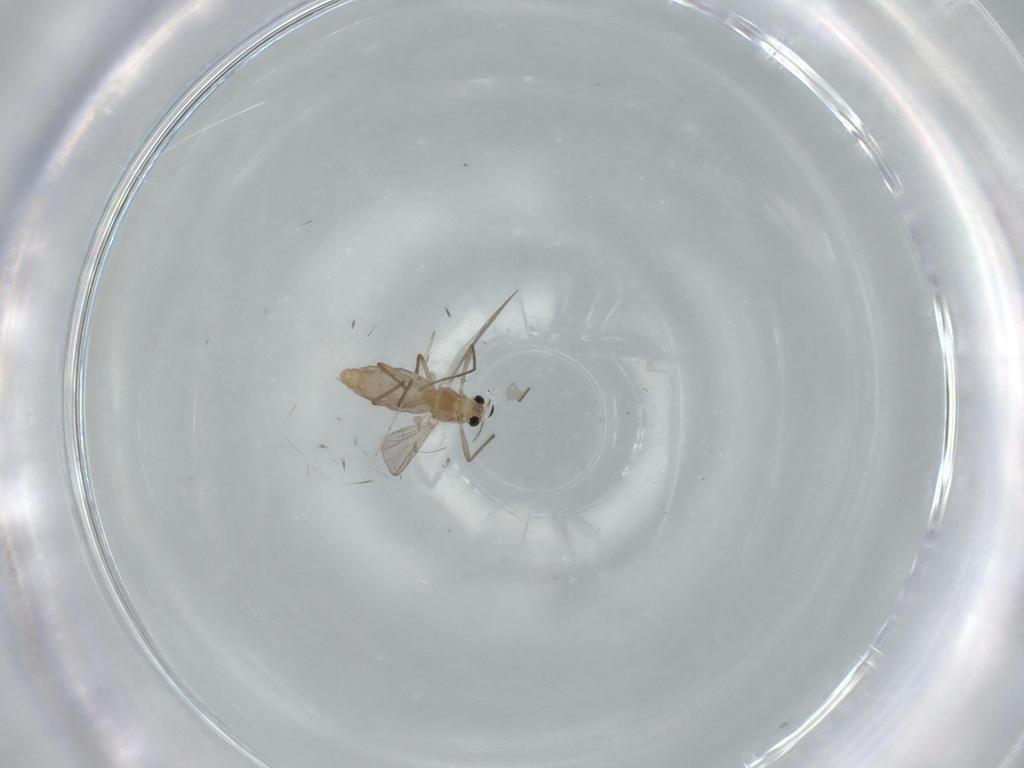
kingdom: Animalia
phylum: Arthropoda
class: Insecta
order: Diptera
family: Chironomidae
